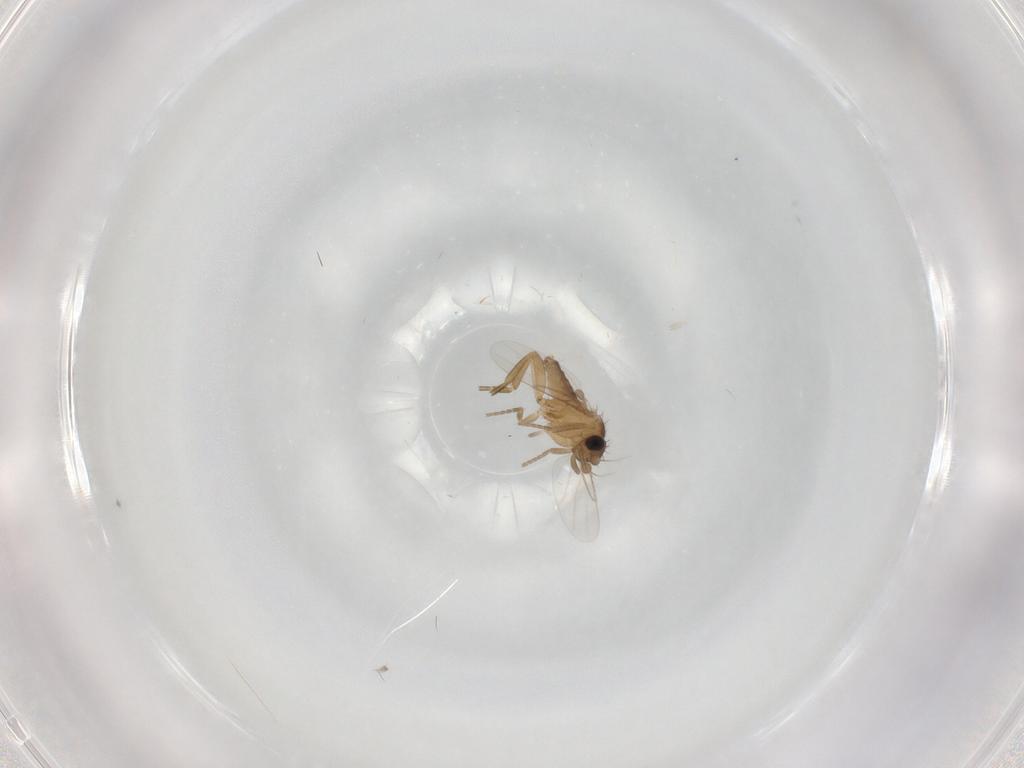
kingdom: Animalia
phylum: Arthropoda
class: Insecta
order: Diptera
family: Phoridae
